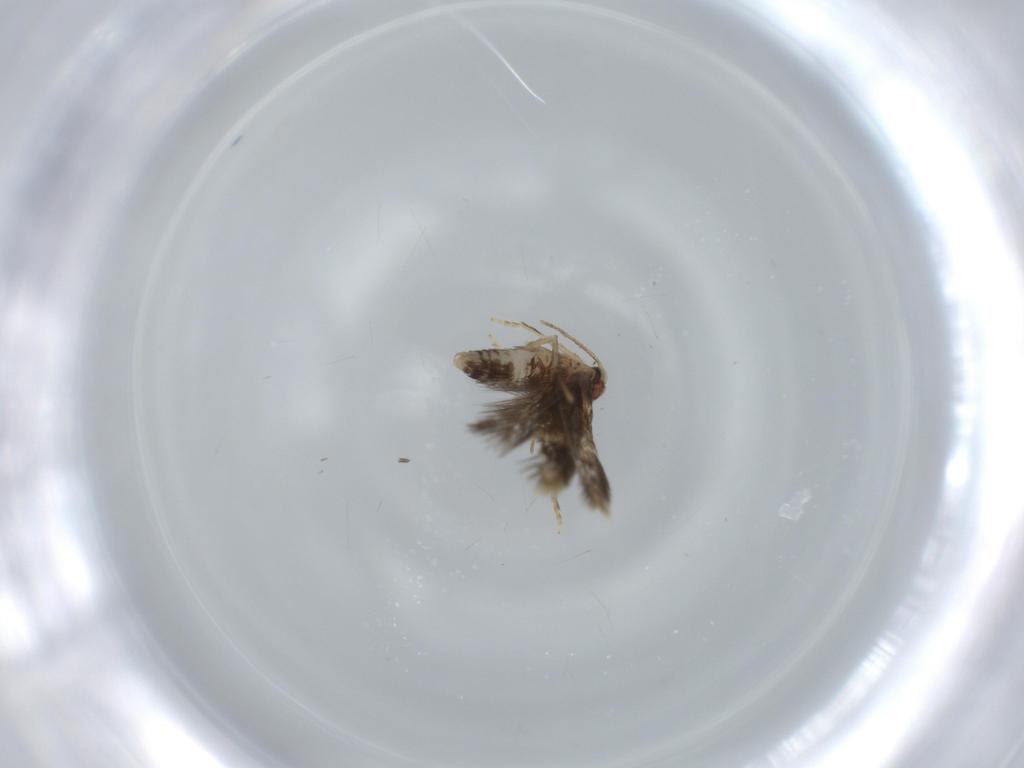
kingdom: Animalia
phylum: Arthropoda
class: Insecta
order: Lepidoptera
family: Copromorphidae
